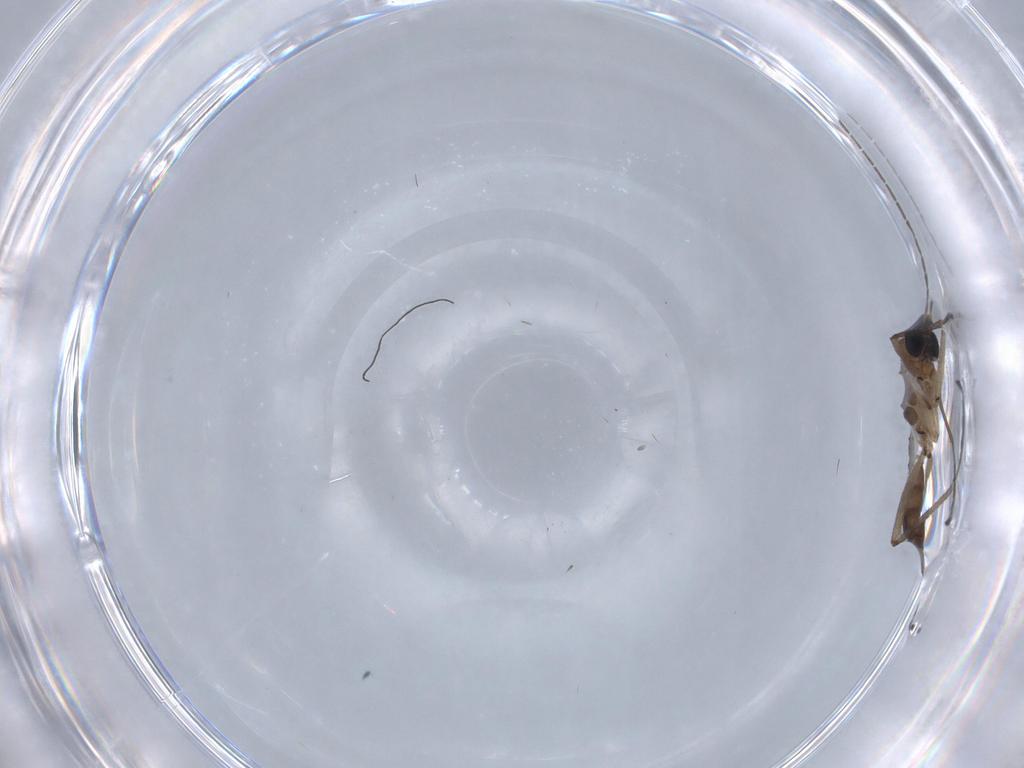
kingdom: Animalia
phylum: Arthropoda
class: Insecta
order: Diptera
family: Sciaridae
